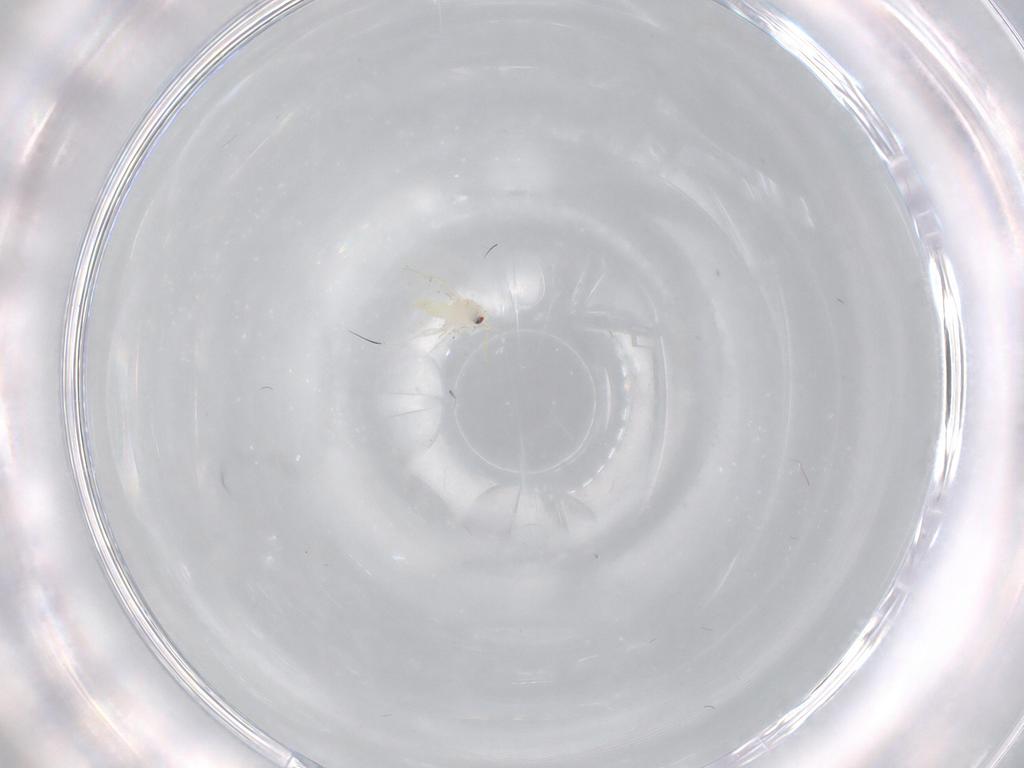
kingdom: Animalia
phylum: Arthropoda
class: Insecta
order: Hemiptera
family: Aleyrodidae
